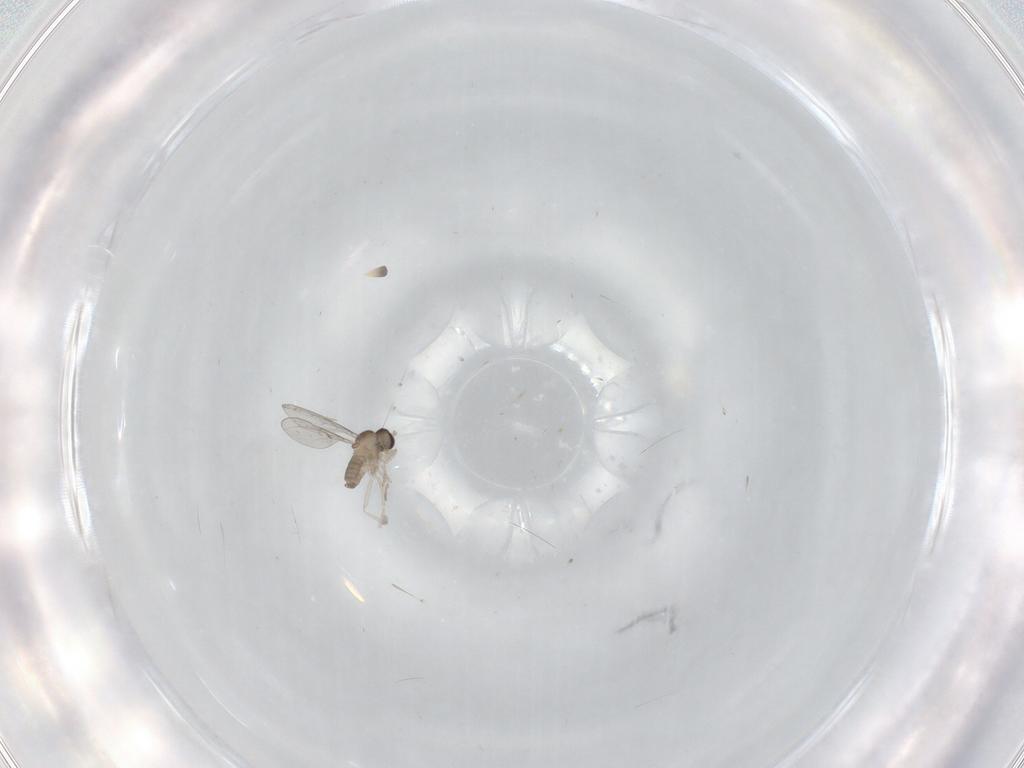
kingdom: Animalia
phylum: Arthropoda
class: Insecta
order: Diptera
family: Cecidomyiidae
